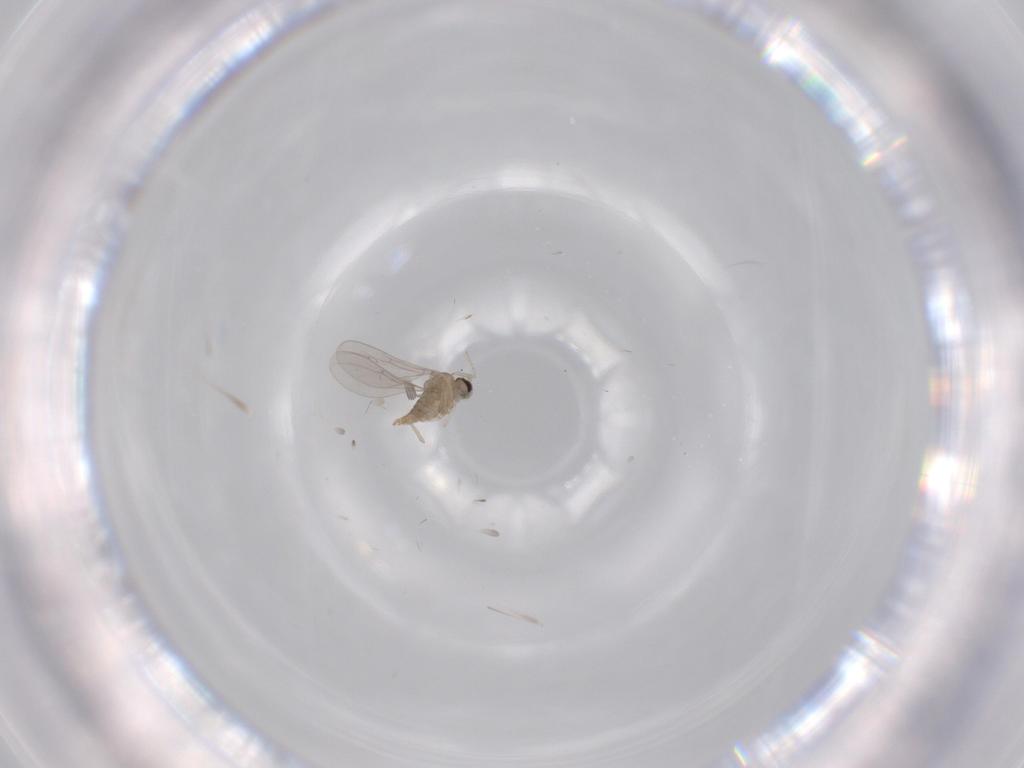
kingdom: Animalia
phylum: Arthropoda
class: Insecta
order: Diptera
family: Cecidomyiidae
